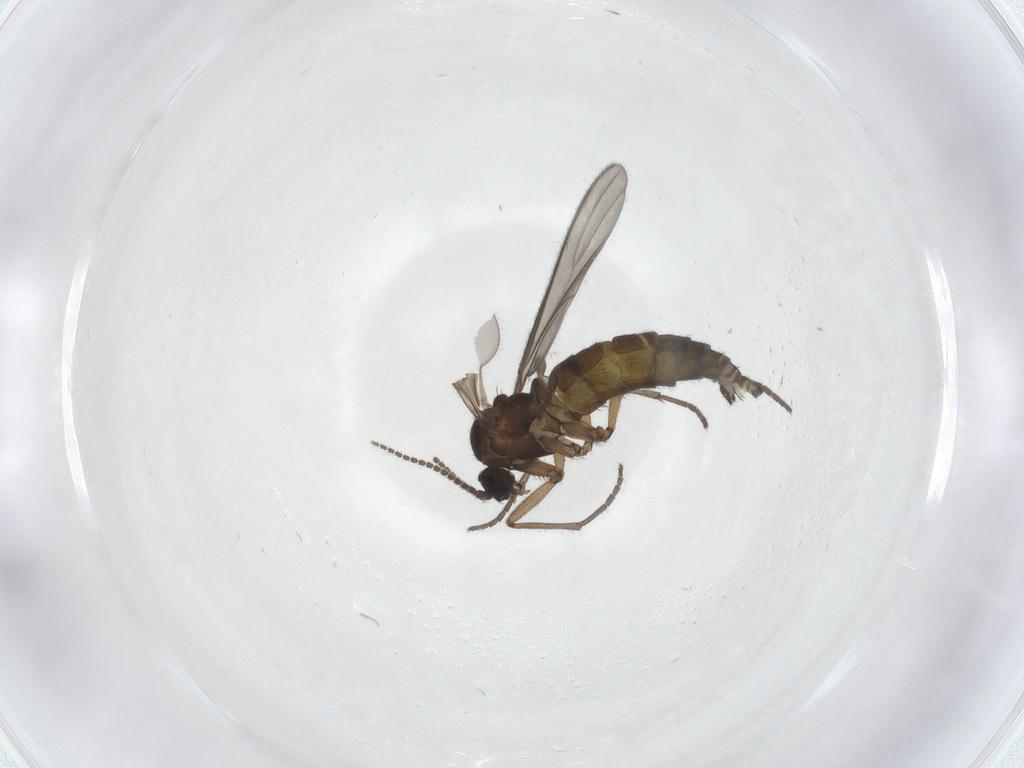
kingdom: Animalia
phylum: Arthropoda
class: Insecta
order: Diptera
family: Sciaridae
